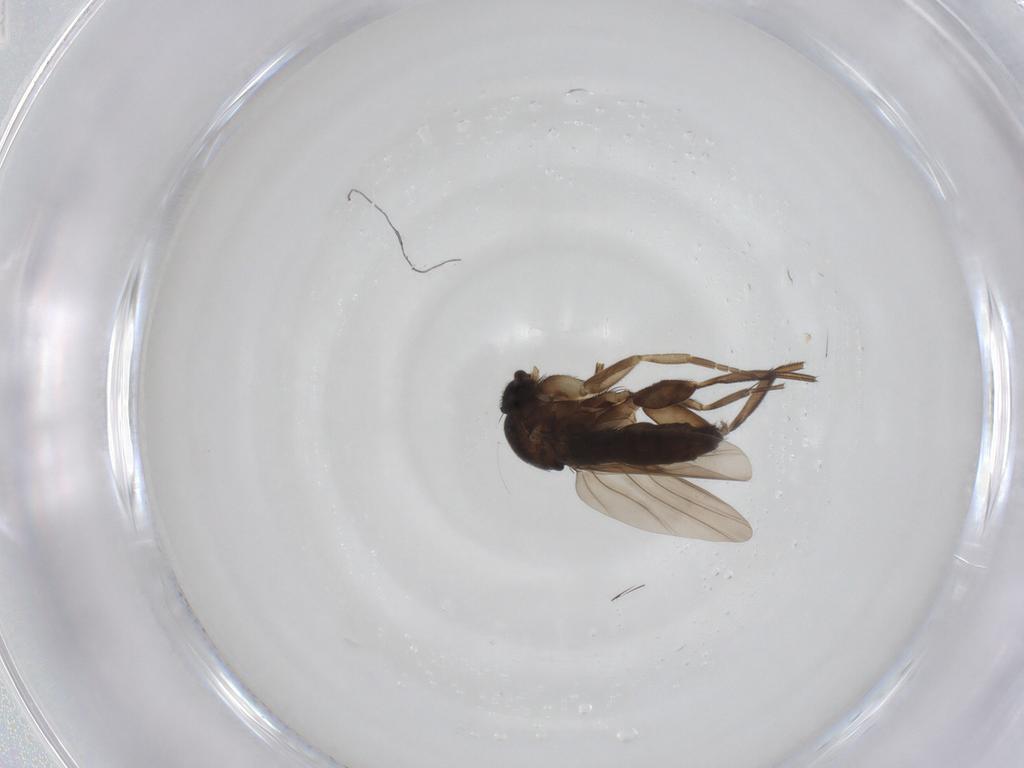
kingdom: Animalia
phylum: Arthropoda
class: Insecta
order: Diptera
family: Phoridae
